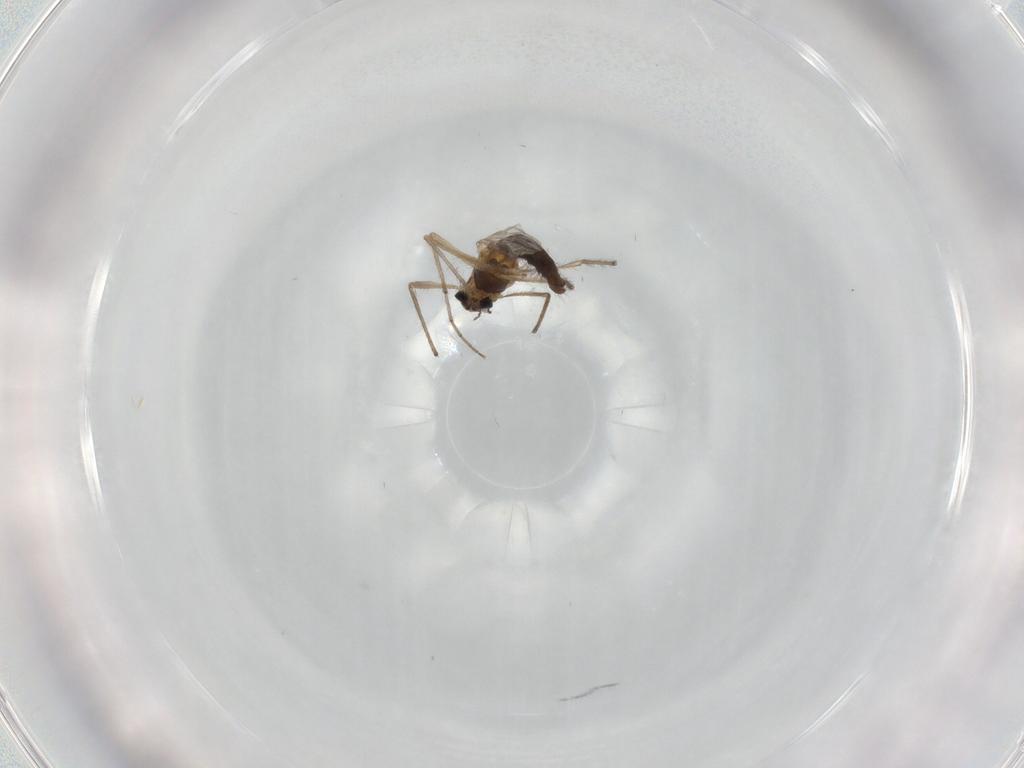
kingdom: Animalia
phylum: Arthropoda
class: Insecta
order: Diptera
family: Chironomidae
